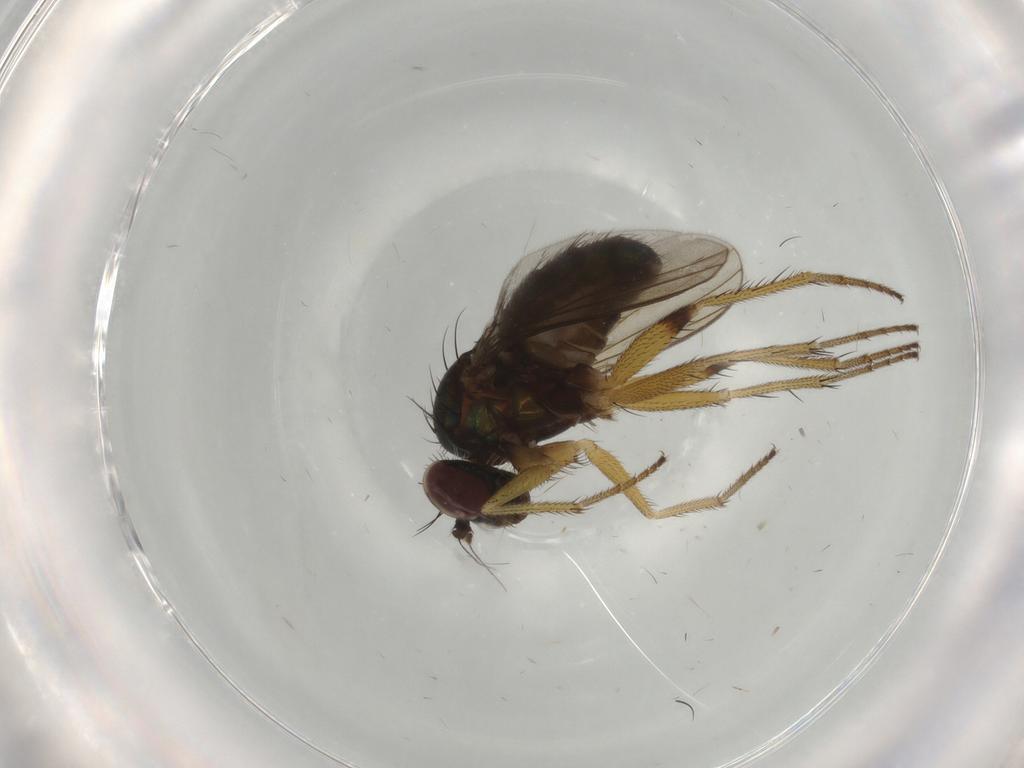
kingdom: Animalia
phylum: Arthropoda
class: Insecta
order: Diptera
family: Dolichopodidae
